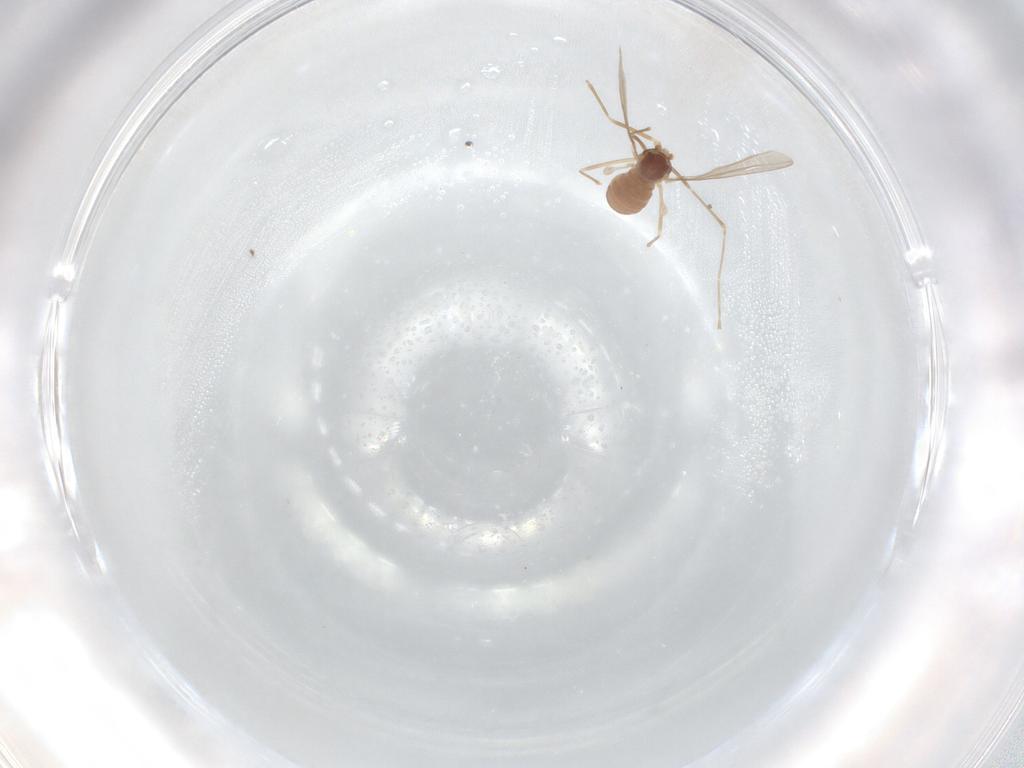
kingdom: Animalia
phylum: Arthropoda
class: Insecta
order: Diptera
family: Cecidomyiidae
